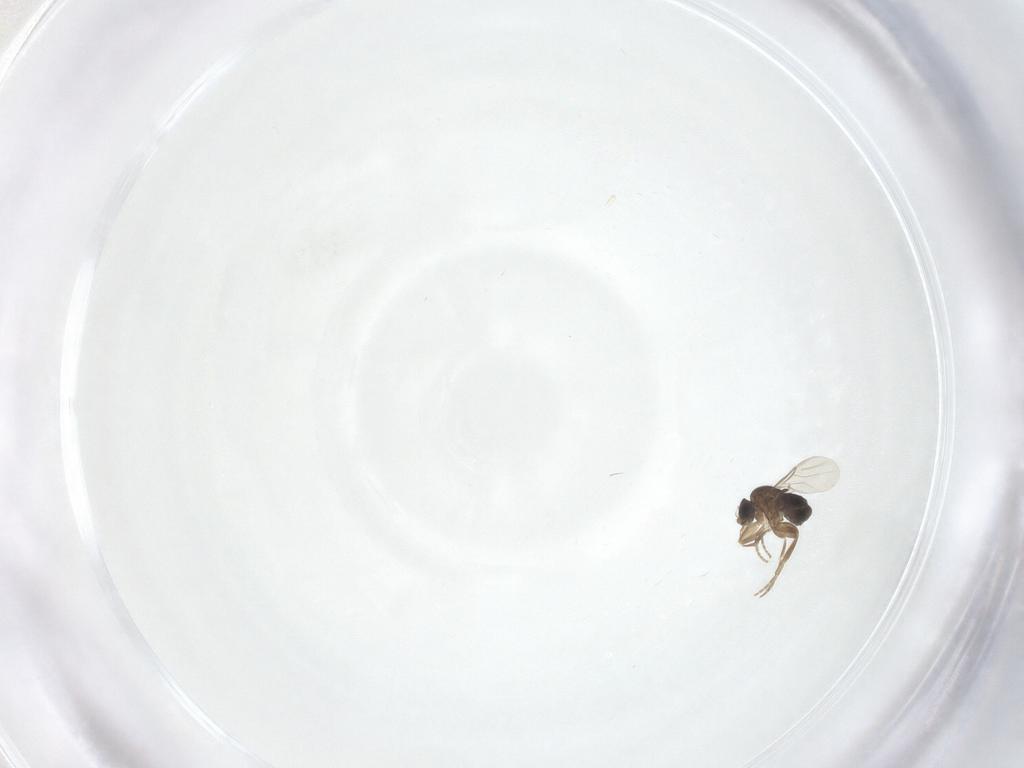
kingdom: Animalia
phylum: Arthropoda
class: Insecta
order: Diptera
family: Phoridae
